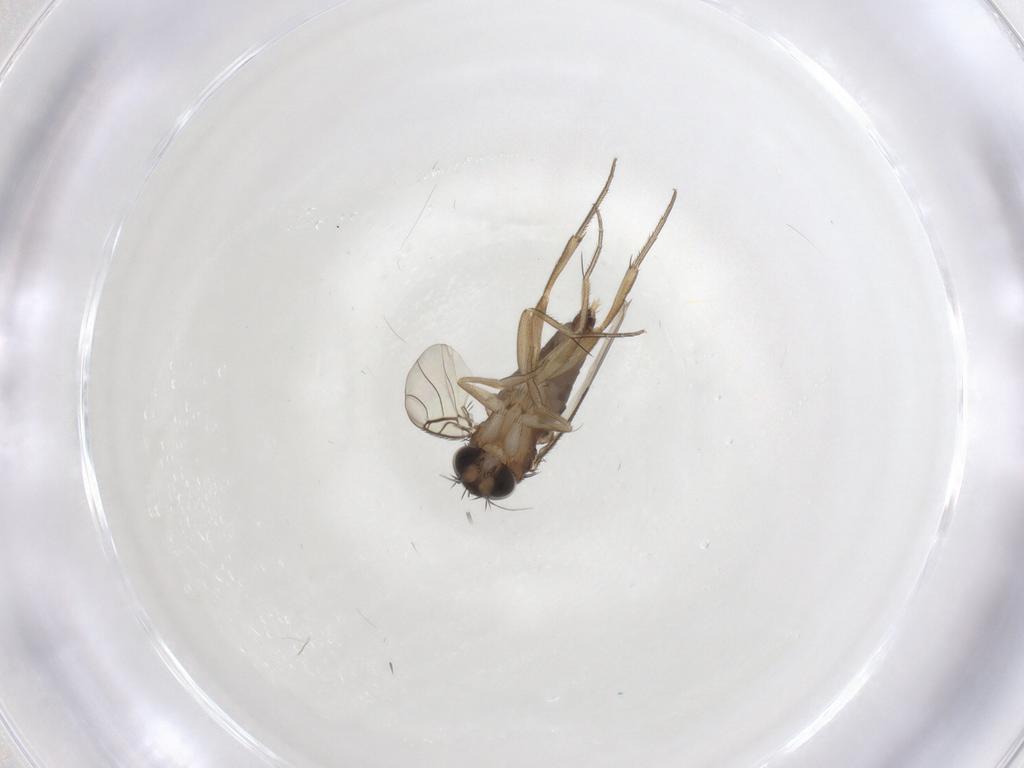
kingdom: Animalia
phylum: Arthropoda
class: Insecta
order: Diptera
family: Phoridae
